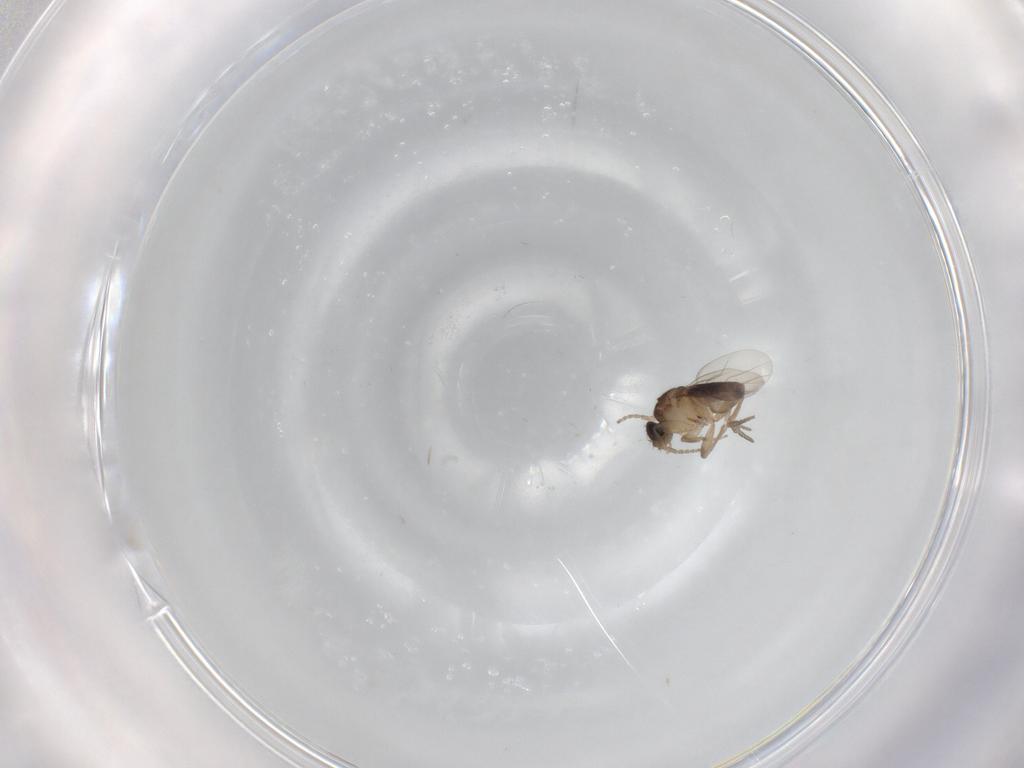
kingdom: Animalia
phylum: Arthropoda
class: Insecta
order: Diptera
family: Phoridae
